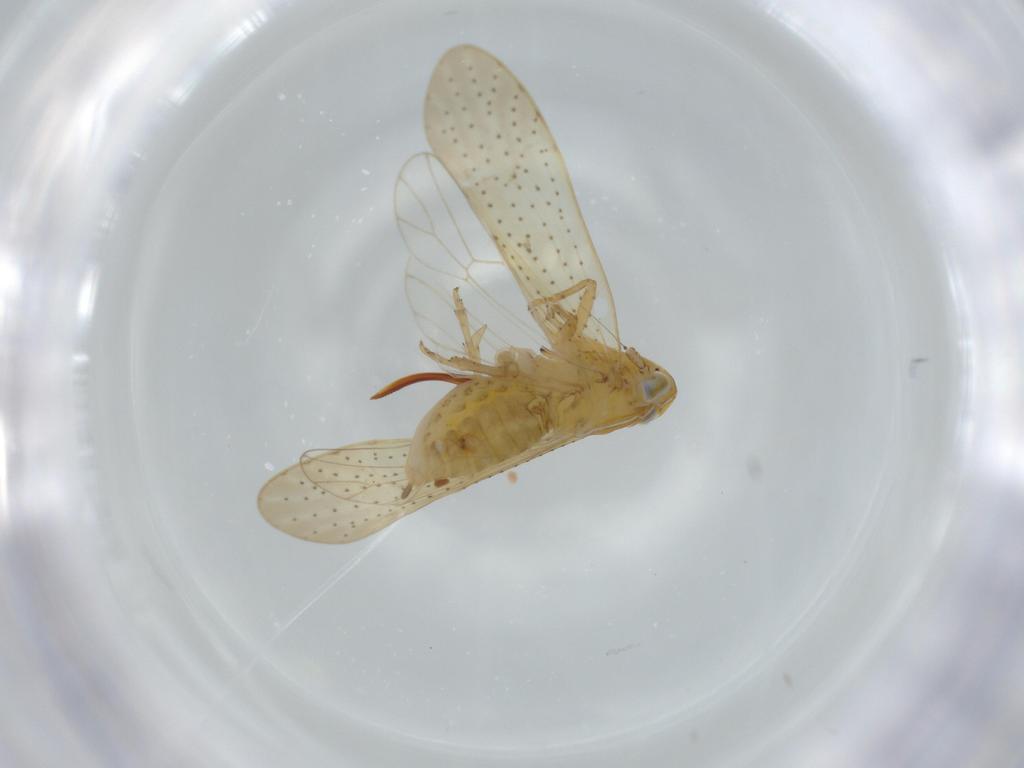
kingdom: Animalia
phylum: Arthropoda
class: Insecta
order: Hemiptera
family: Delphacidae
